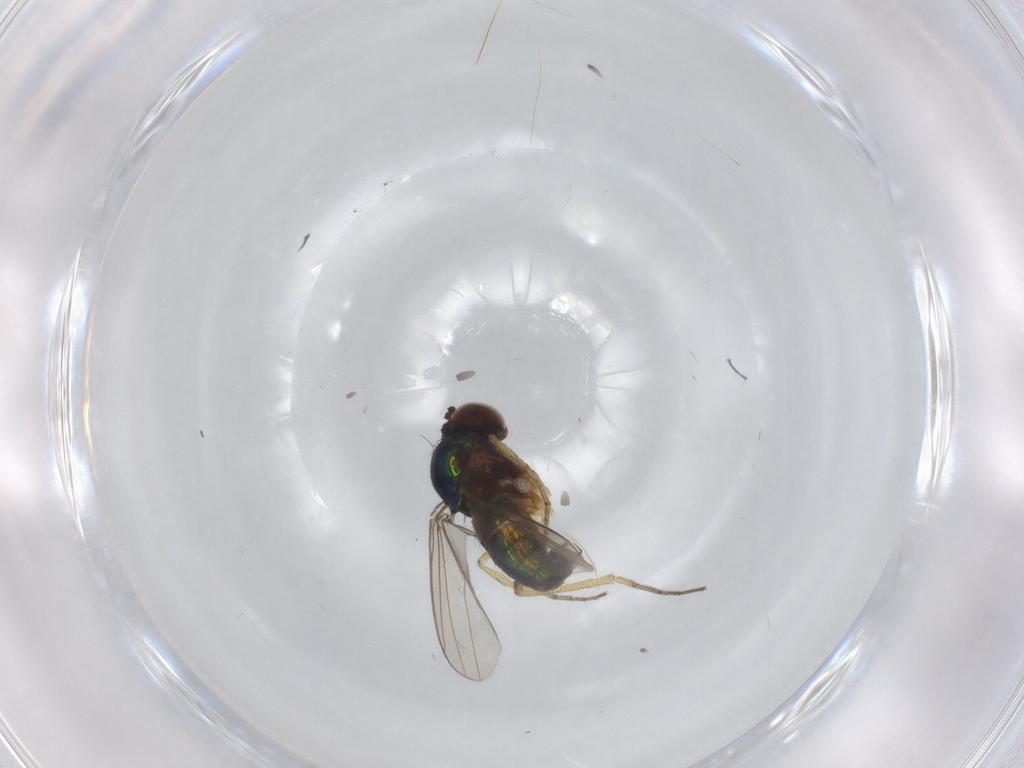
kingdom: Animalia
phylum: Arthropoda
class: Insecta
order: Diptera
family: Dolichopodidae
